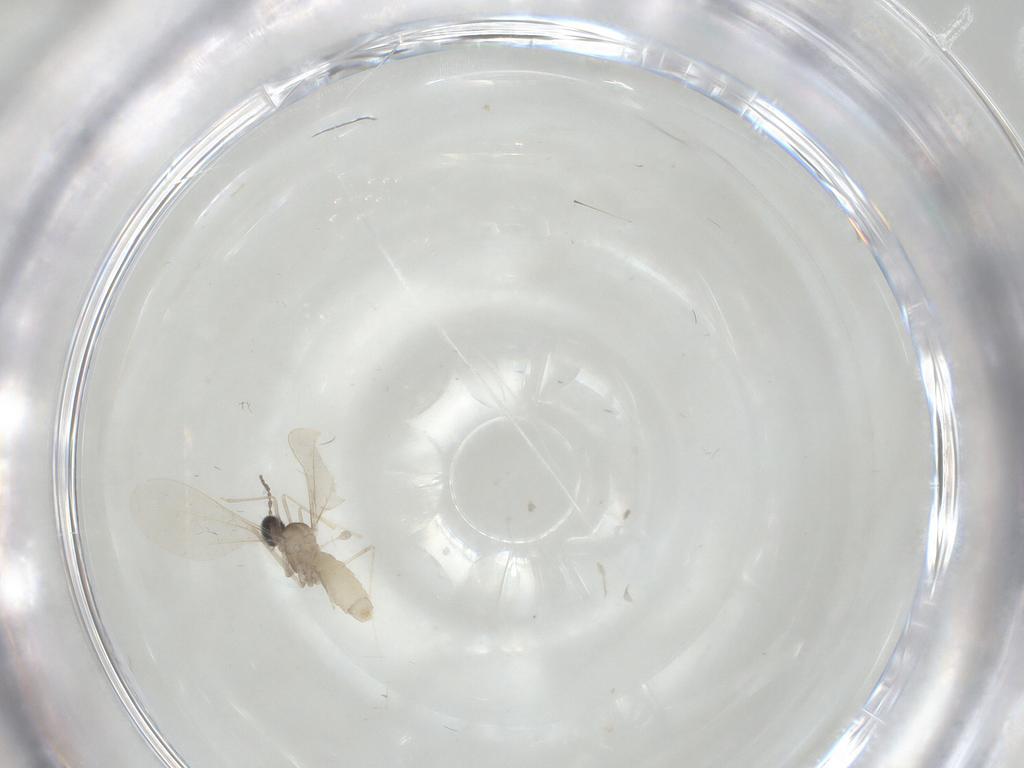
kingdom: Animalia
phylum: Arthropoda
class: Insecta
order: Diptera
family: Cecidomyiidae
